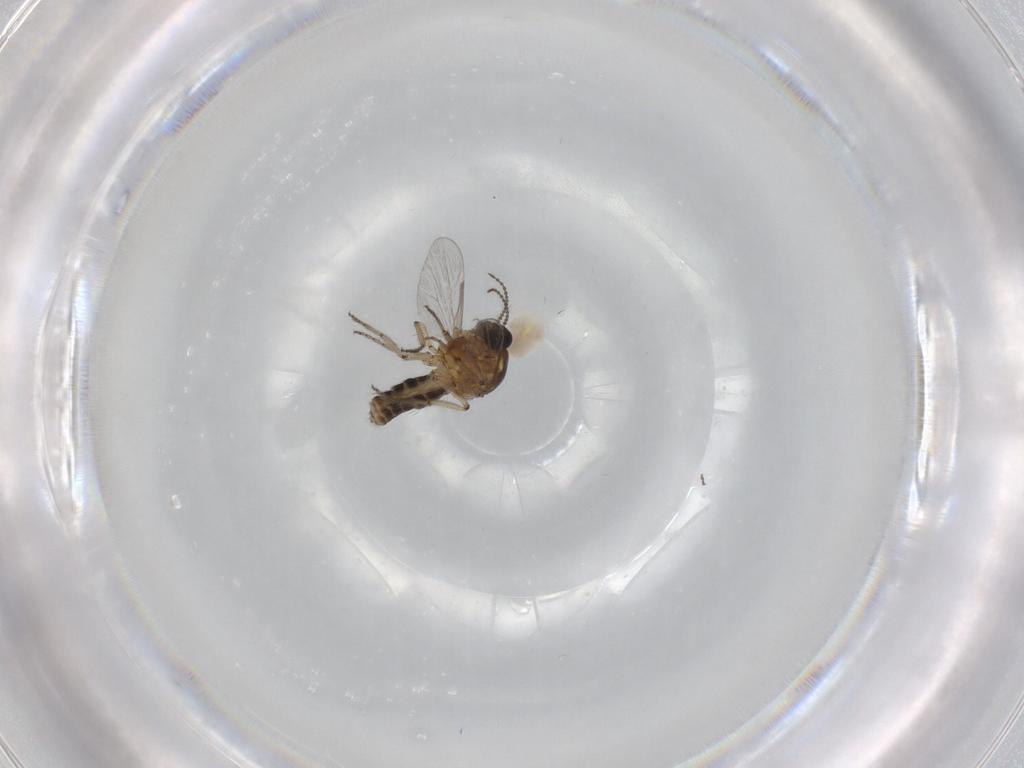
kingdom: Animalia
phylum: Arthropoda
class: Insecta
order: Diptera
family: Ceratopogonidae
